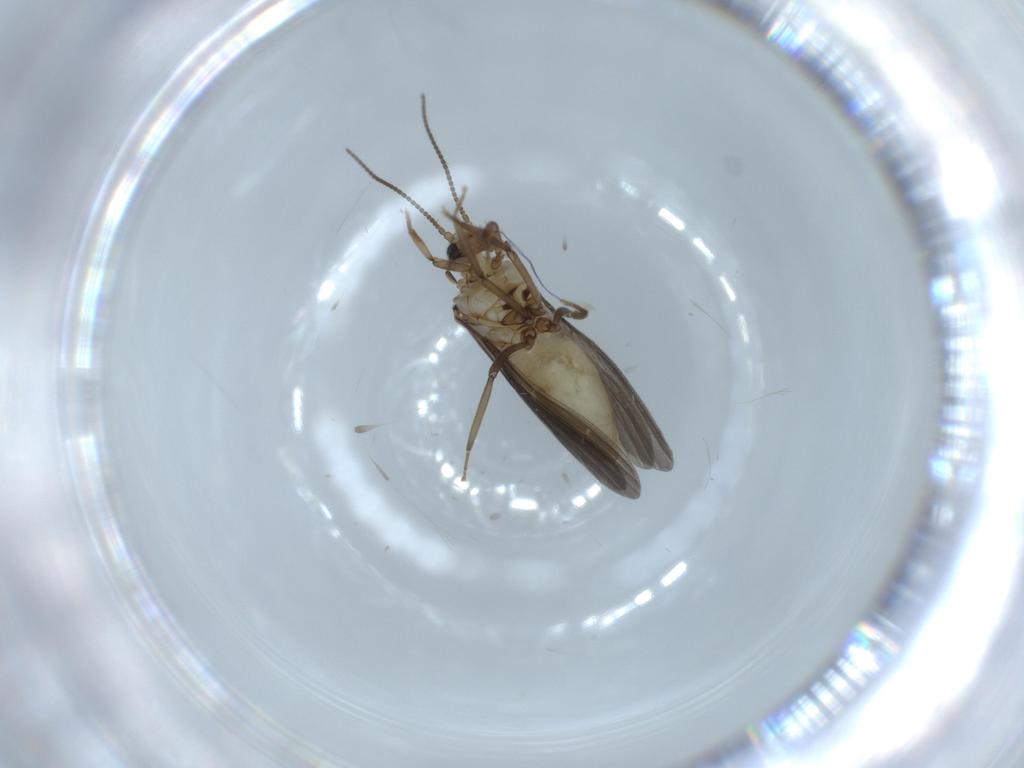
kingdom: Animalia
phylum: Arthropoda
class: Insecta
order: Neuroptera
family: Coniopterygidae
